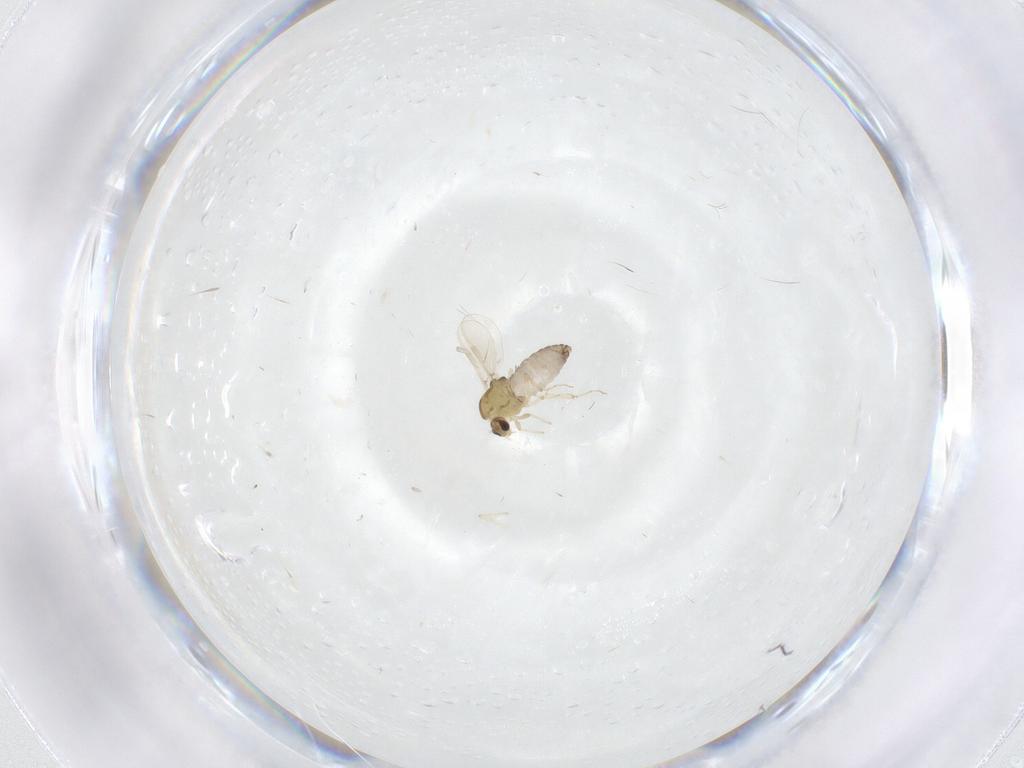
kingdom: Animalia
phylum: Arthropoda
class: Insecta
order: Diptera
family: Chironomidae
